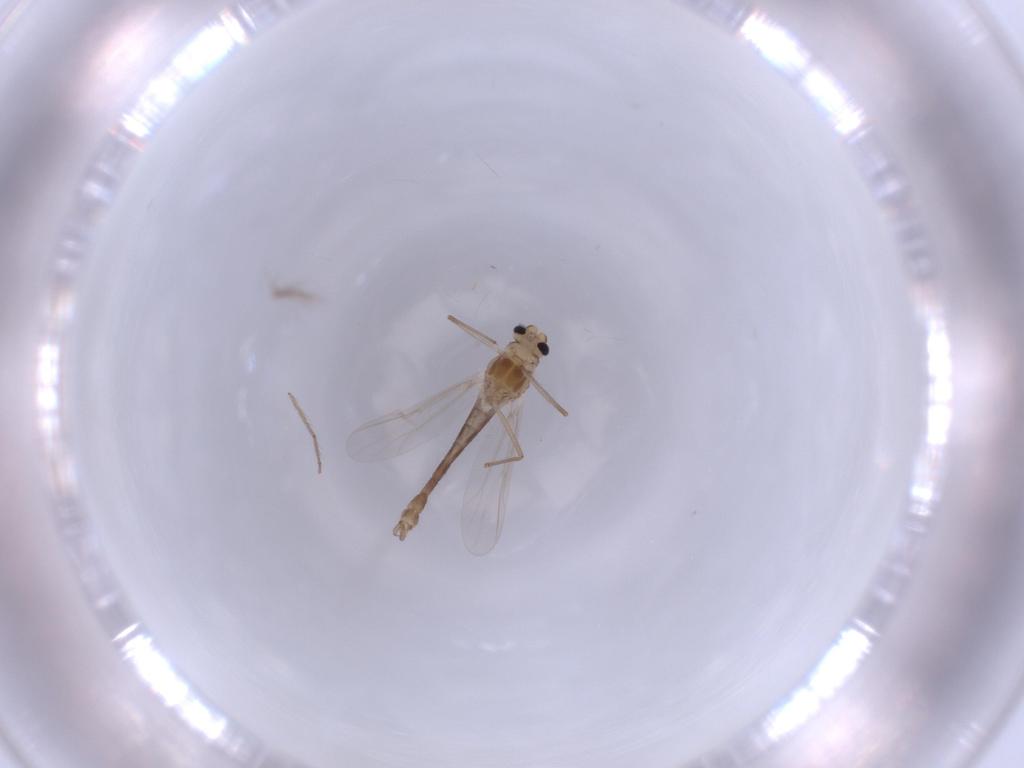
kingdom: Animalia
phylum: Arthropoda
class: Insecta
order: Diptera
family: Chironomidae
